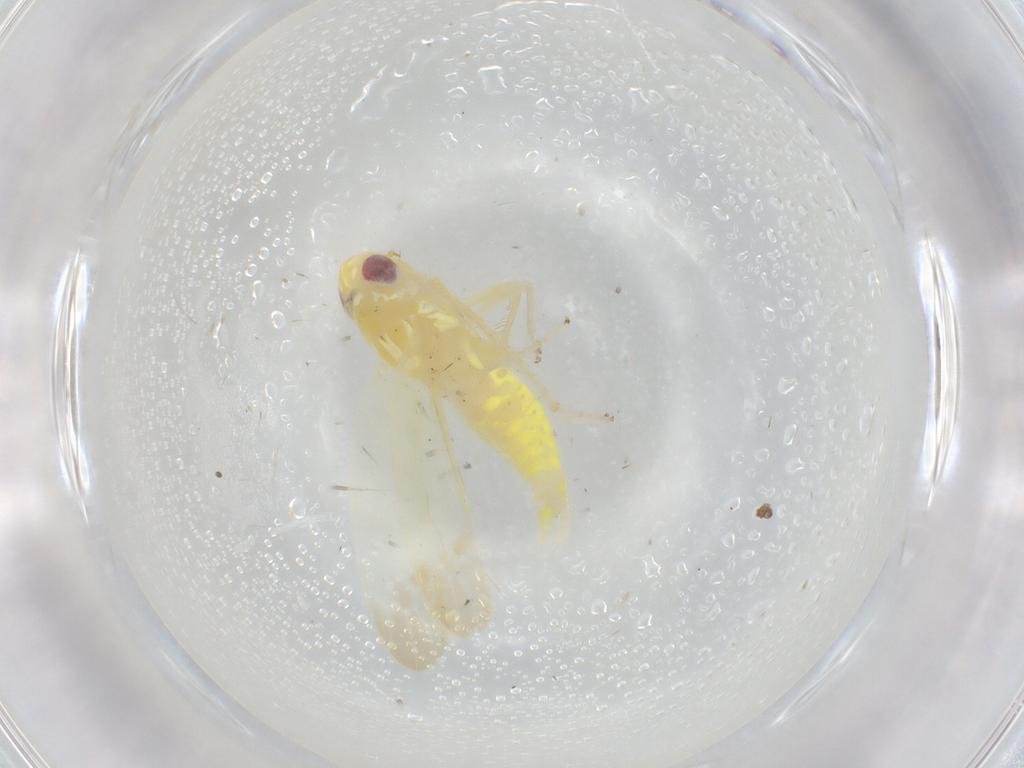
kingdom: Animalia
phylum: Arthropoda
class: Insecta
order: Hemiptera
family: Cicadellidae
